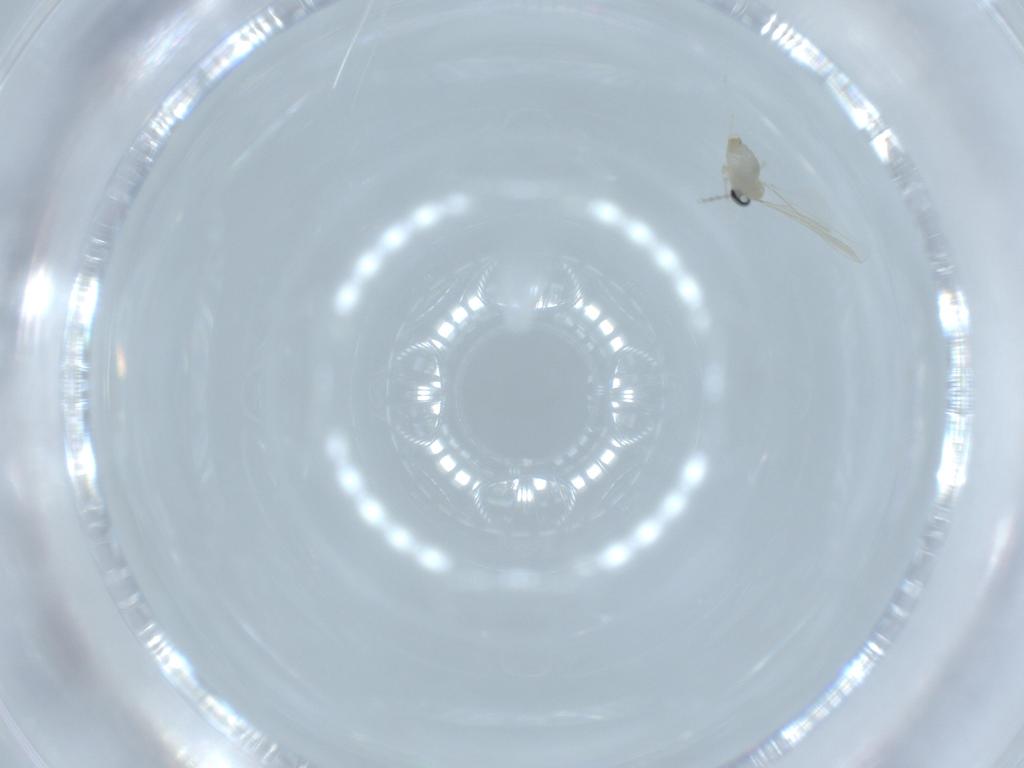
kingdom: Animalia
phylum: Arthropoda
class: Insecta
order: Diptera
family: Cecidomyiidae
